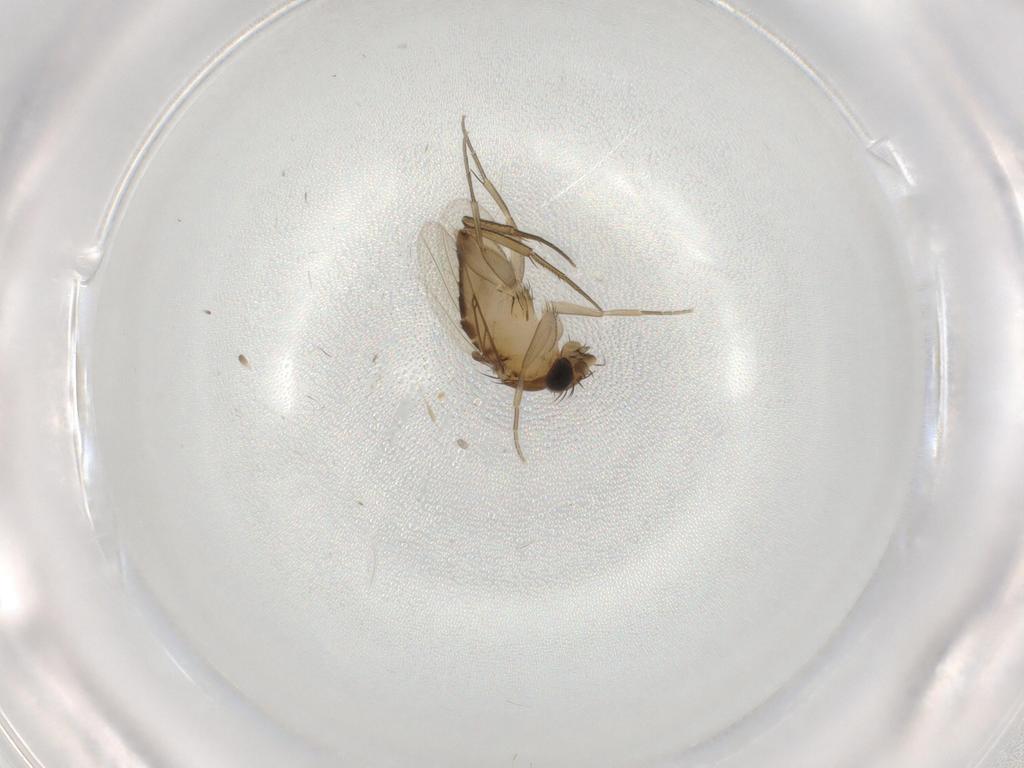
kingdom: Animalia
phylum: Arthropoda
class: Insecta
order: Diptera
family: Phoridae
